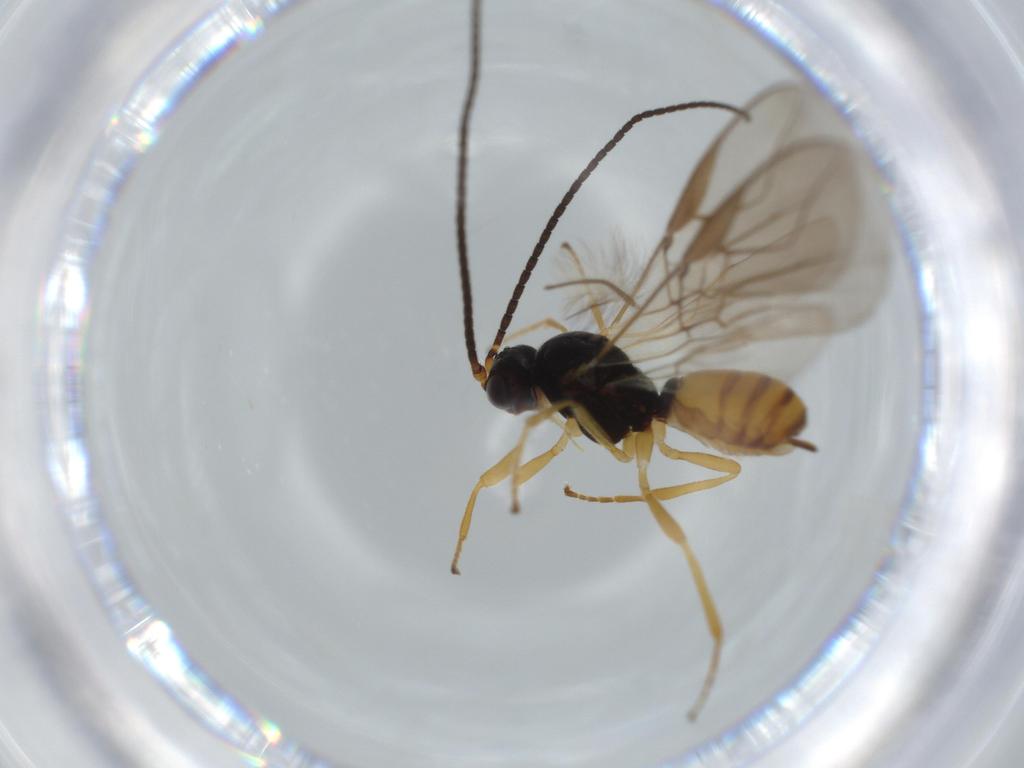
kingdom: Animalia
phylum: Arthropoda
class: Insecta
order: Hymenoptera
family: Braconidae
